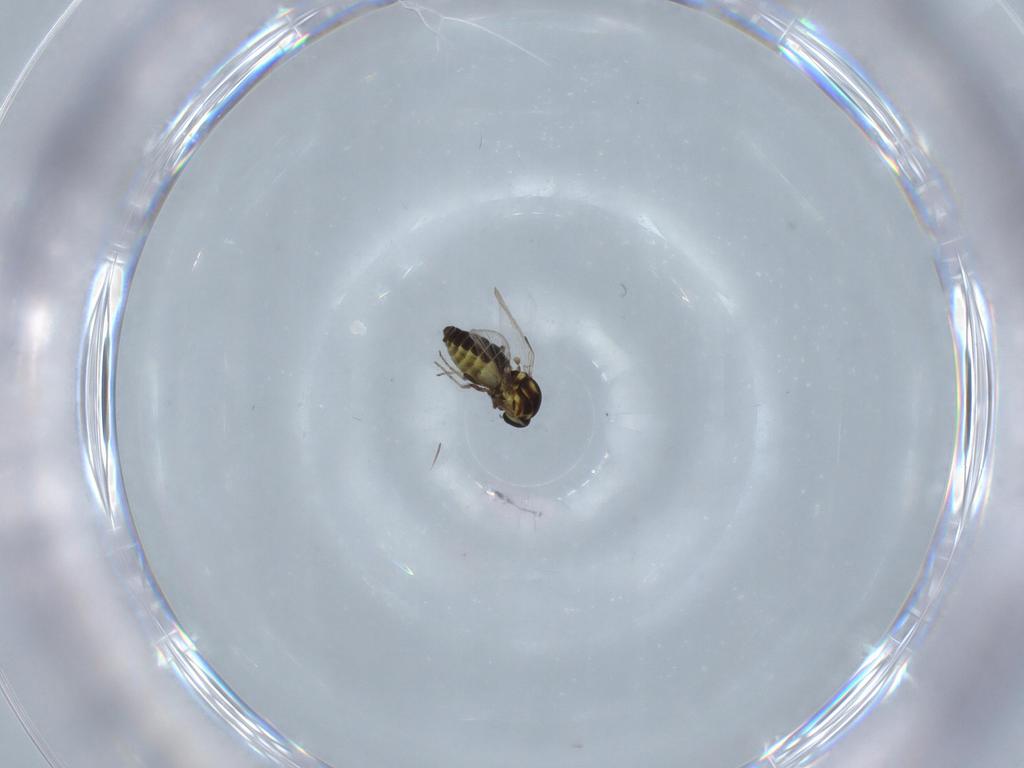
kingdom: Animalia
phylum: Arthropoda
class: Insecta
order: Diptera
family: Ceratopogonidae
